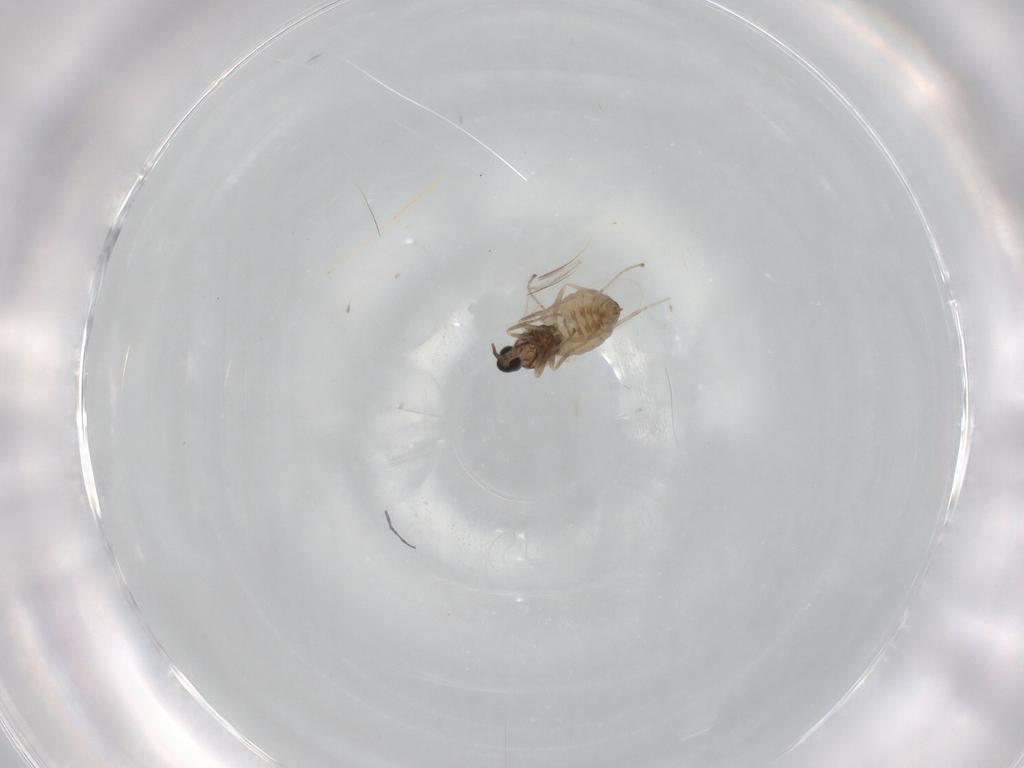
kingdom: Animalia
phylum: Arthropoda
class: Insecta
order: Diptera
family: Cecidomyiidae
